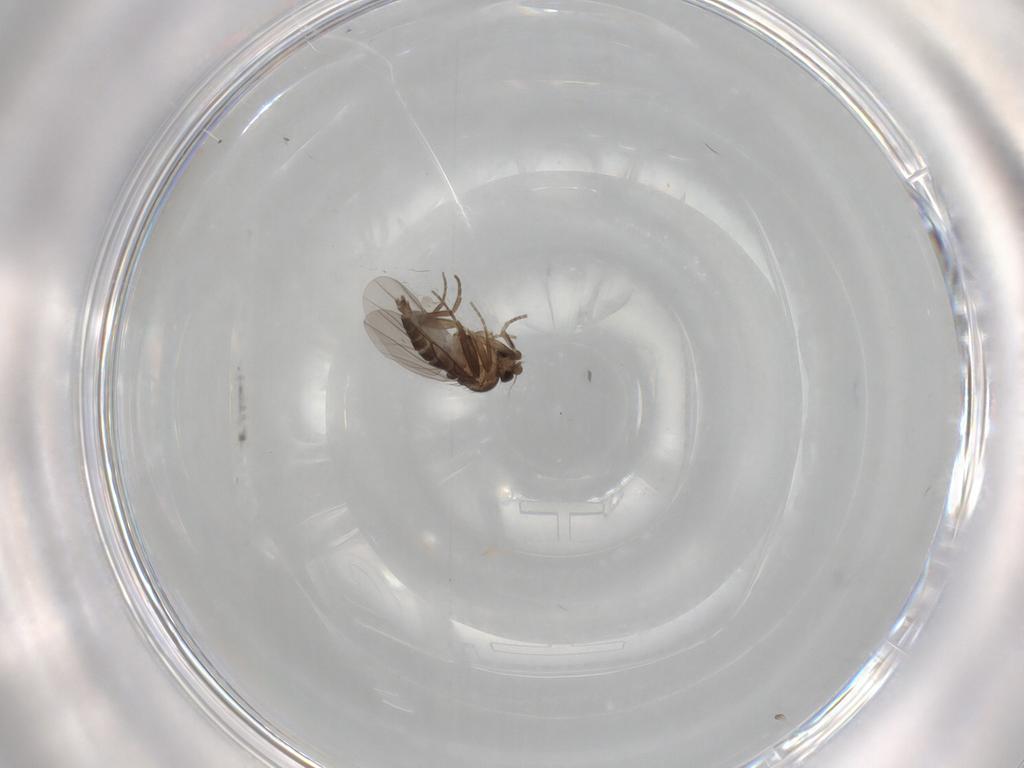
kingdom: Animalia
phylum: Arthropoda
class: Insecta
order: Diptera
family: Phoridae
